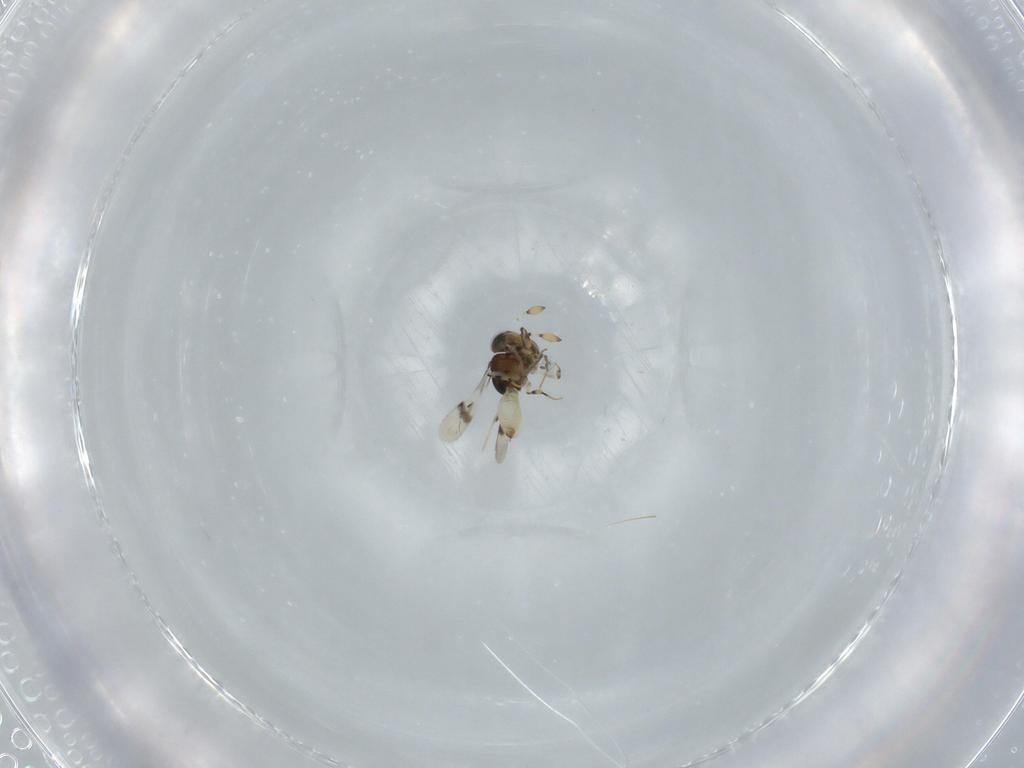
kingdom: Animalia
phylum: Arthropoda
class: Insecta
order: Hymenoptera
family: Scelionidae
